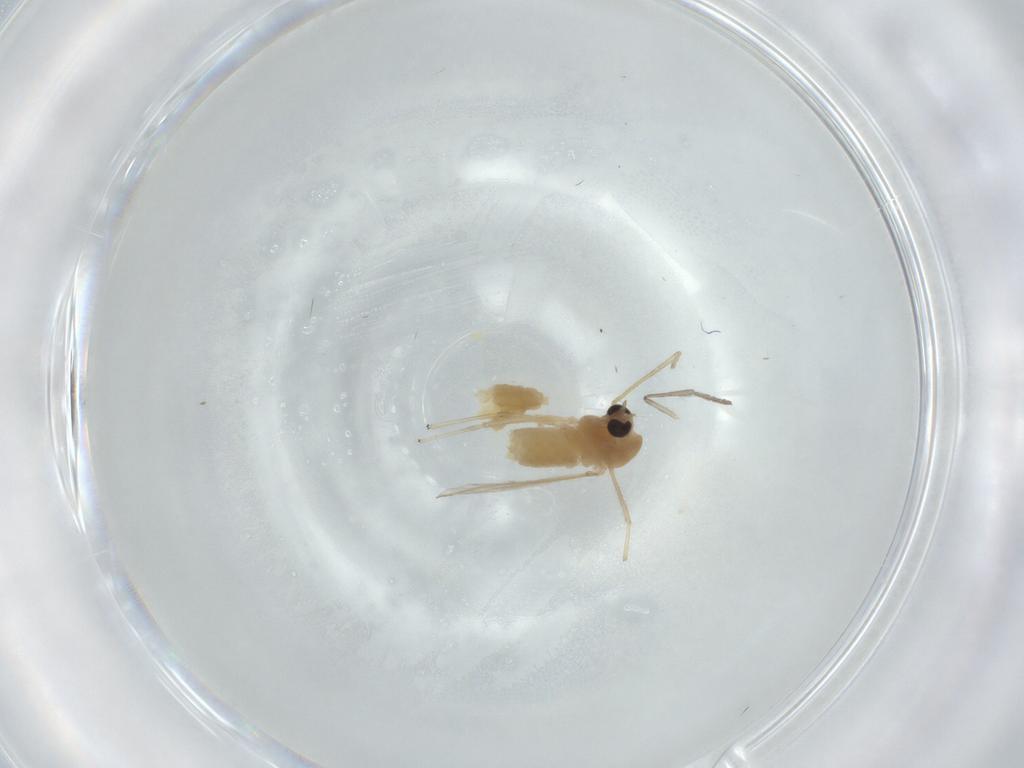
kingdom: Animalia
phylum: Arthropoda
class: Insecta
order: Diptera
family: Chironomidae
